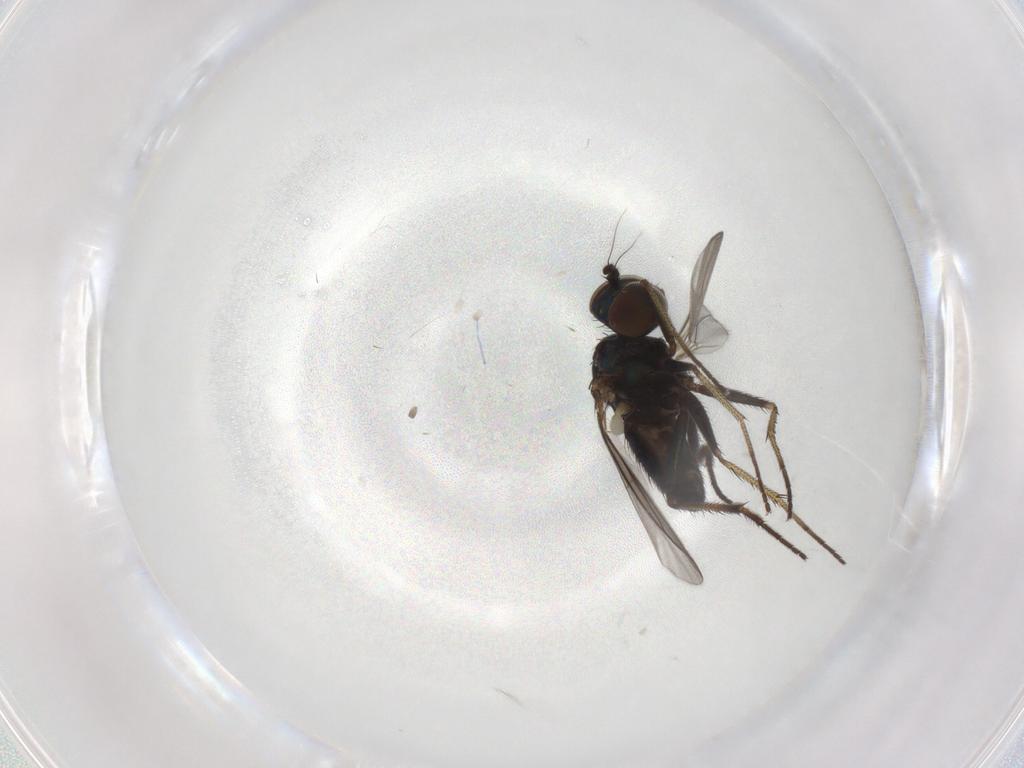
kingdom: Animalia
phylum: Arthropoda
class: Insecta
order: Diptera
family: Dolichopodidae
